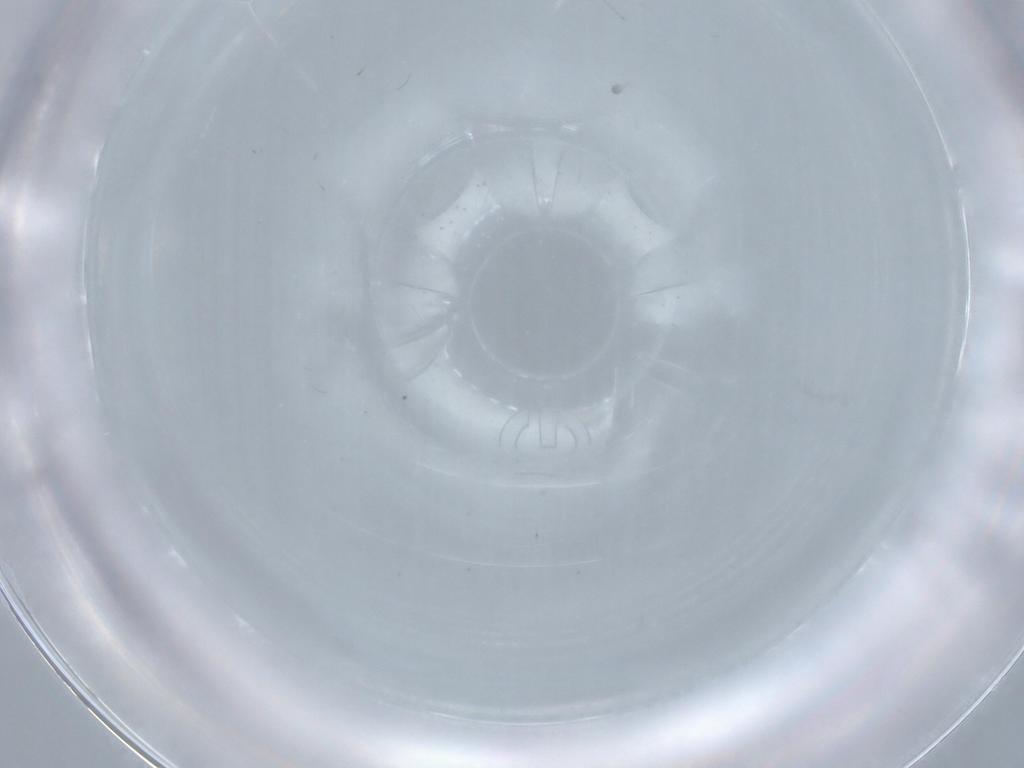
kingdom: Animalia
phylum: Arthropoda
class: Insecta
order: Diptera
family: Cecidomyiidae
